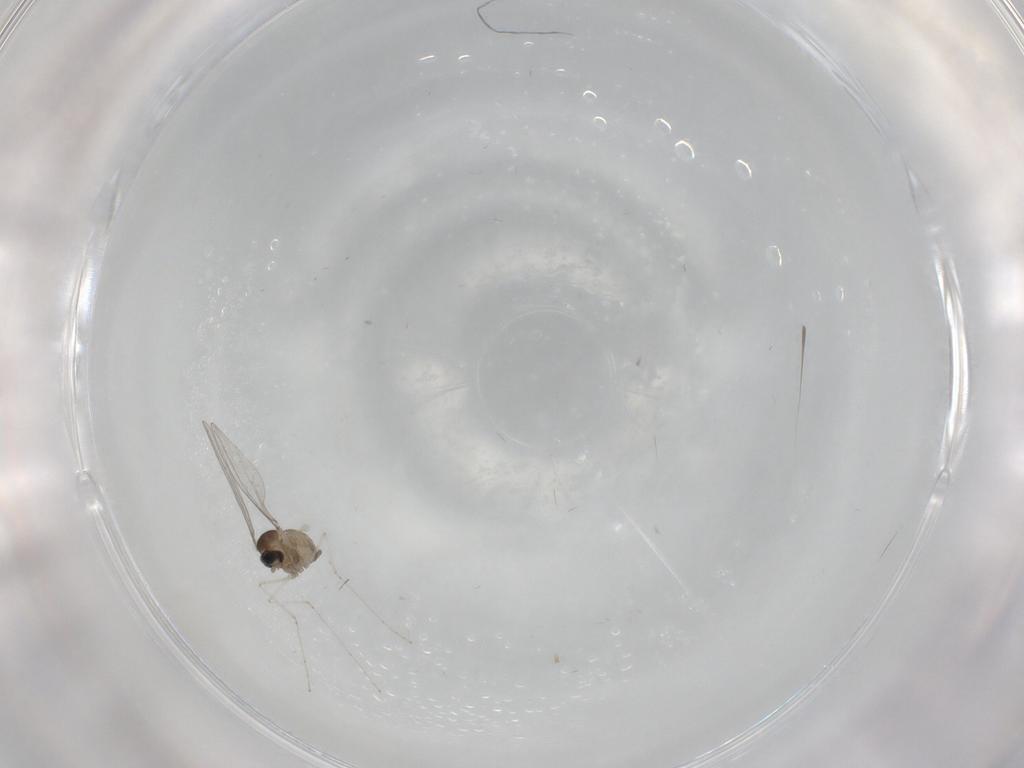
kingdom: Animalia
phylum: Arthropoda
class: Insecta
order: Diptera
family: Cecidomyiidae
